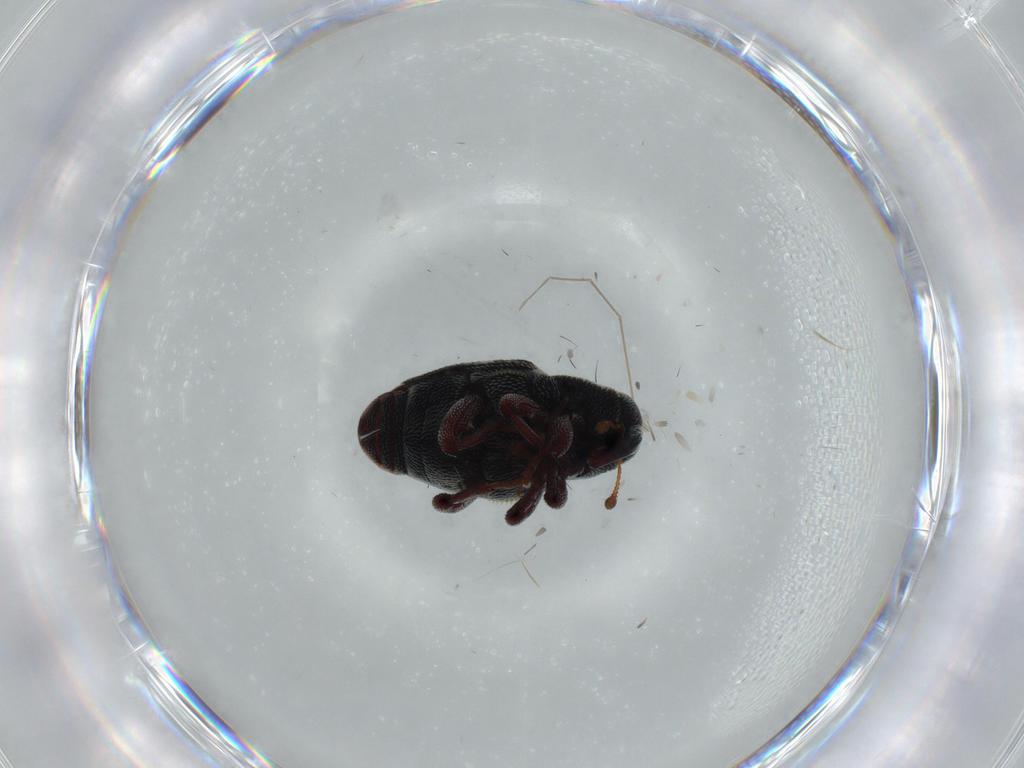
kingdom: Animalia
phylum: Arthropoda
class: Insecta
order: Coleoptera
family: Curculionidae
